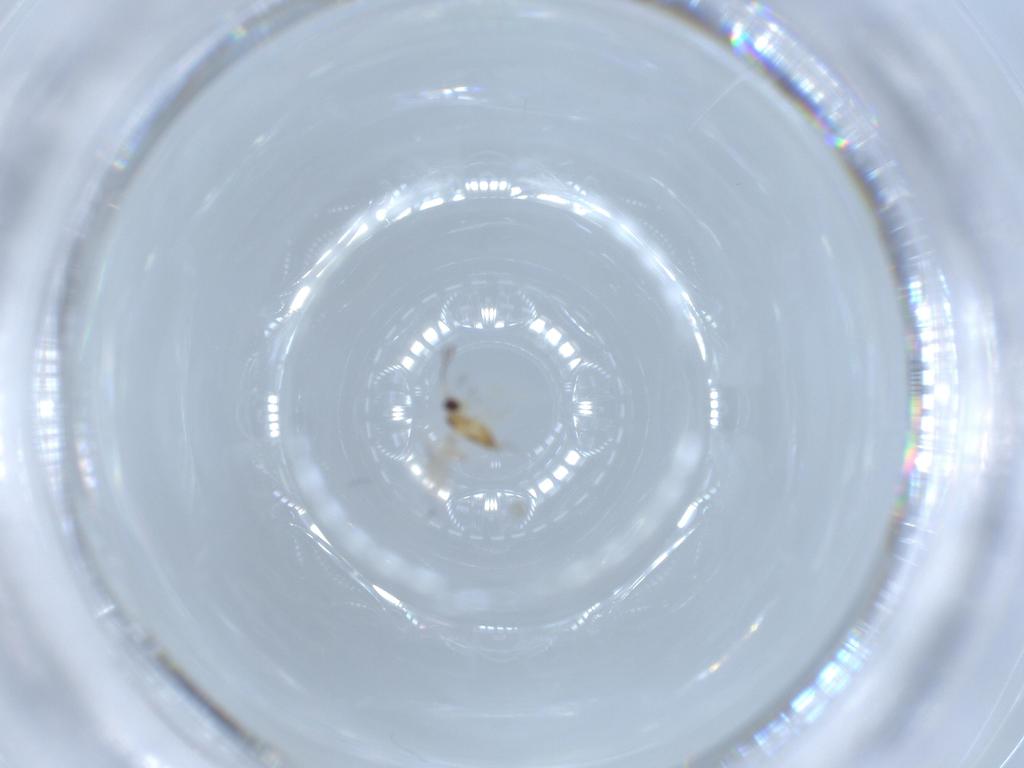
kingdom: Animalia
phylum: Arthropoda
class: Insecta
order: Hymenoptera
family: Mymaridae
